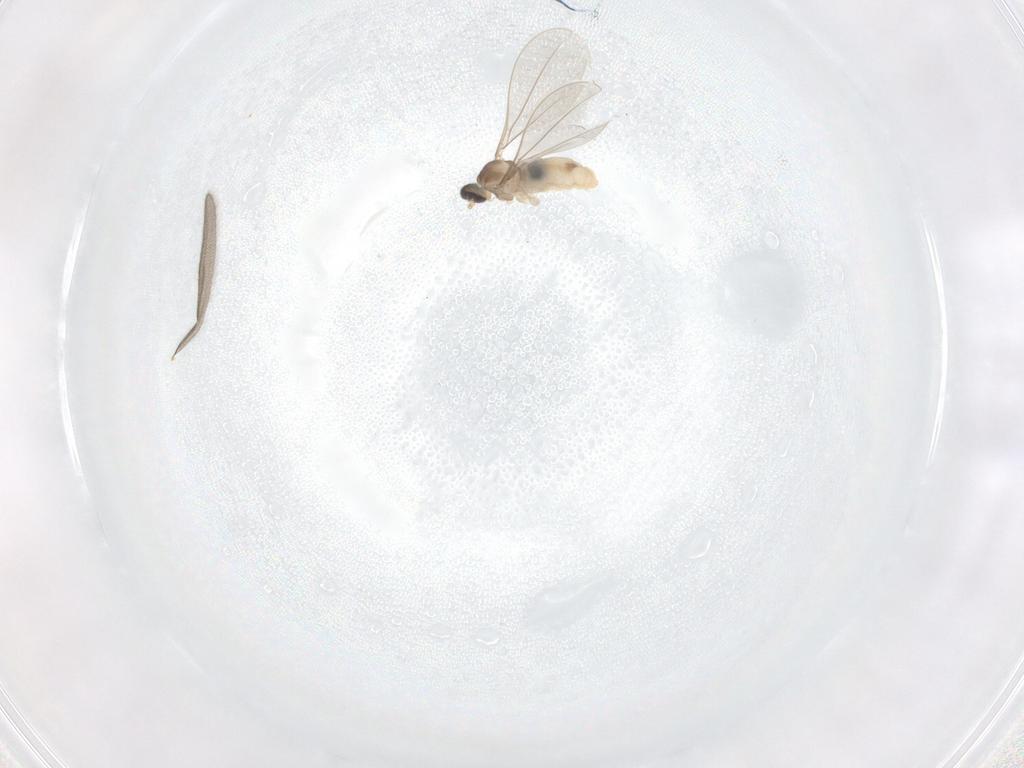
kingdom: Animalia
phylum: Arthropoda
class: Insecta
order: Diptera
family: Cecidomyiidae
